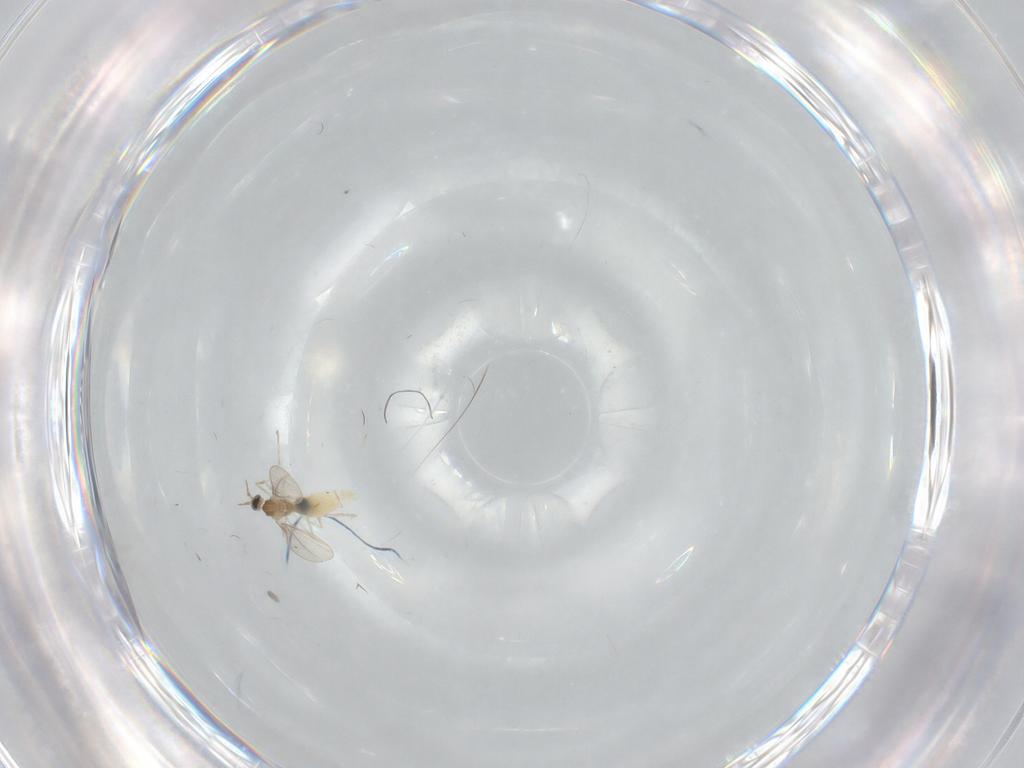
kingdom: Animalia
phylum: Arthropoda
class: Insecta
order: Diptera
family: Cecidomyiidae
